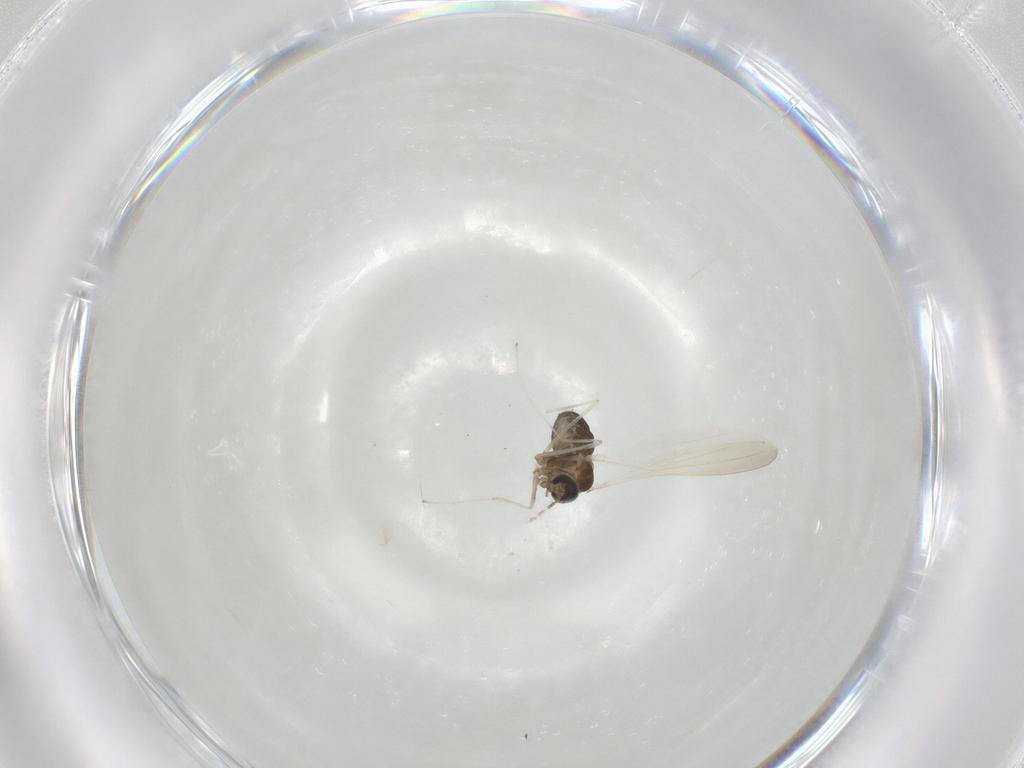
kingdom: Animalia
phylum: Arthropoda
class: Insecta
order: Diptera
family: Cecidomyiidae
